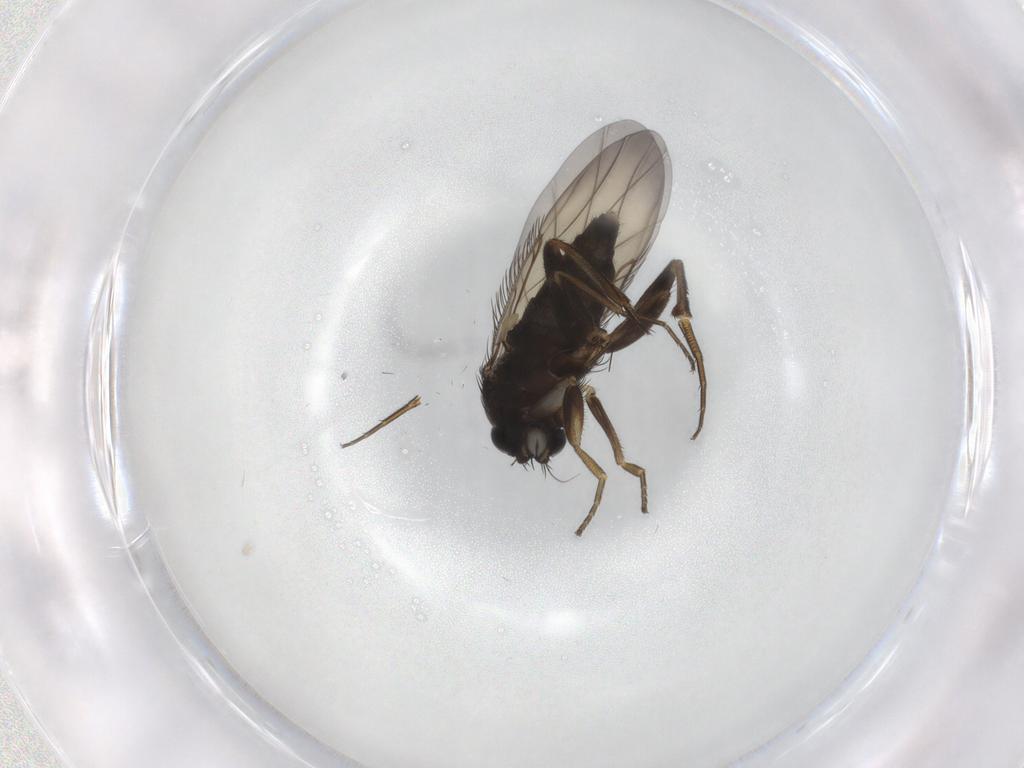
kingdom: Animalia
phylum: Arthropoda
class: Insecta
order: Diptera
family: Phoridae
